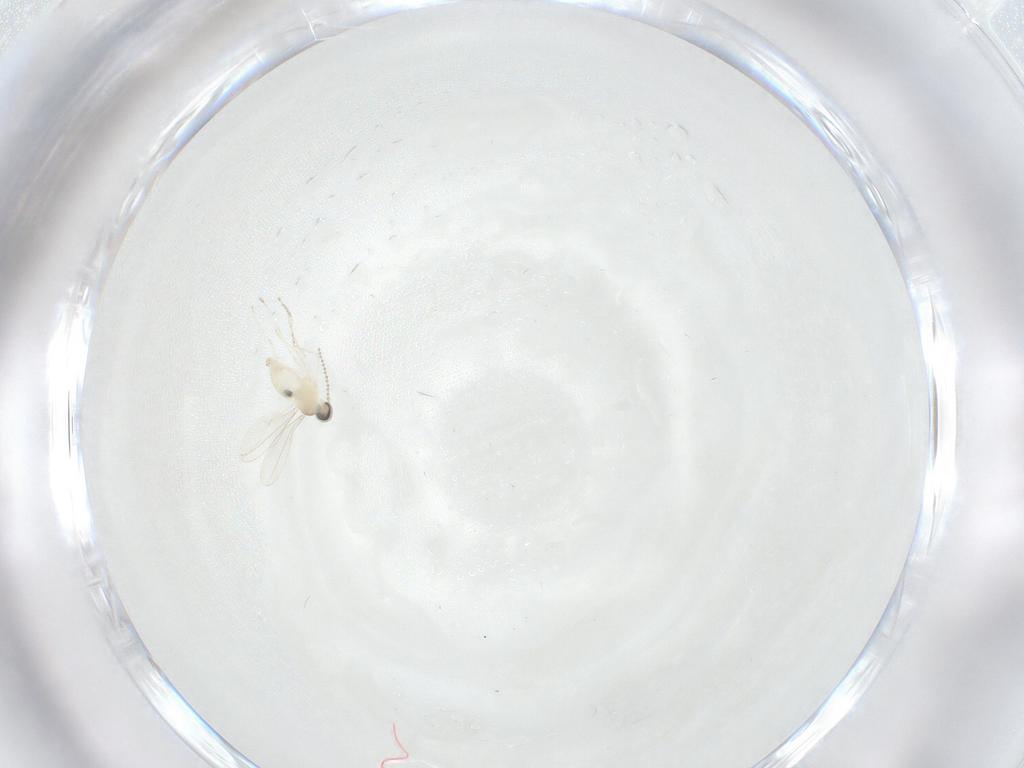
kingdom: Animalia
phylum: Arthropoda
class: Insecta
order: Diptera
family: Cecidomyiidae
